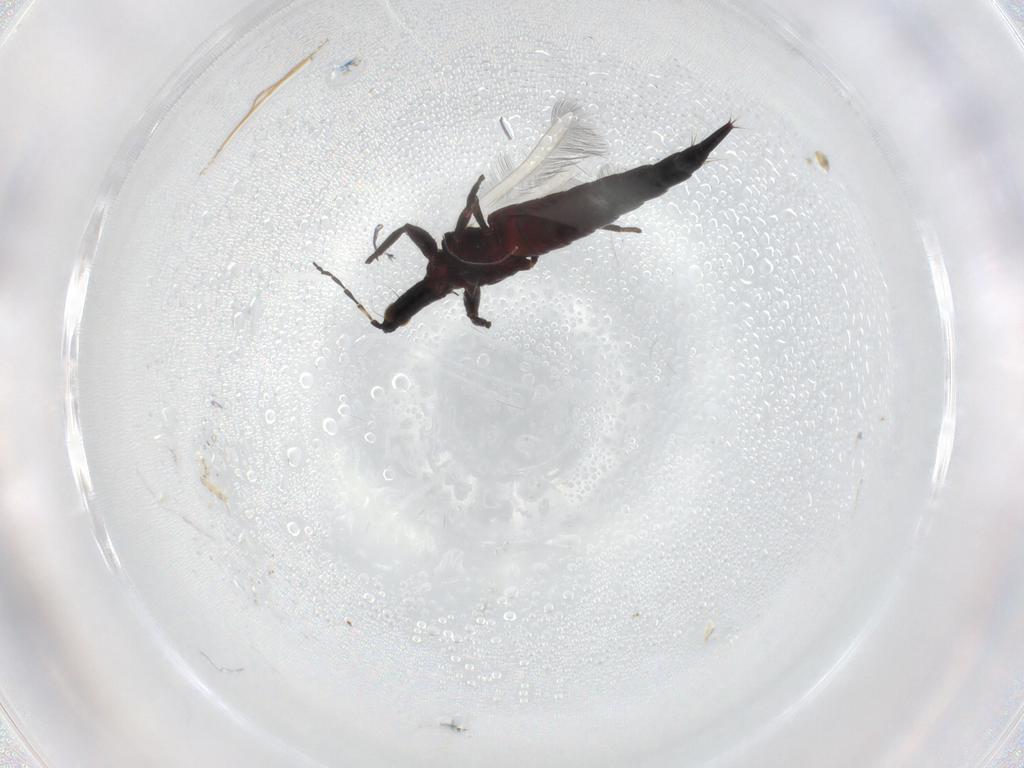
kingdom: Animalia
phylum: Arthropoda
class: Insecta
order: Thysanoptera
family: Phlaeothripidae
